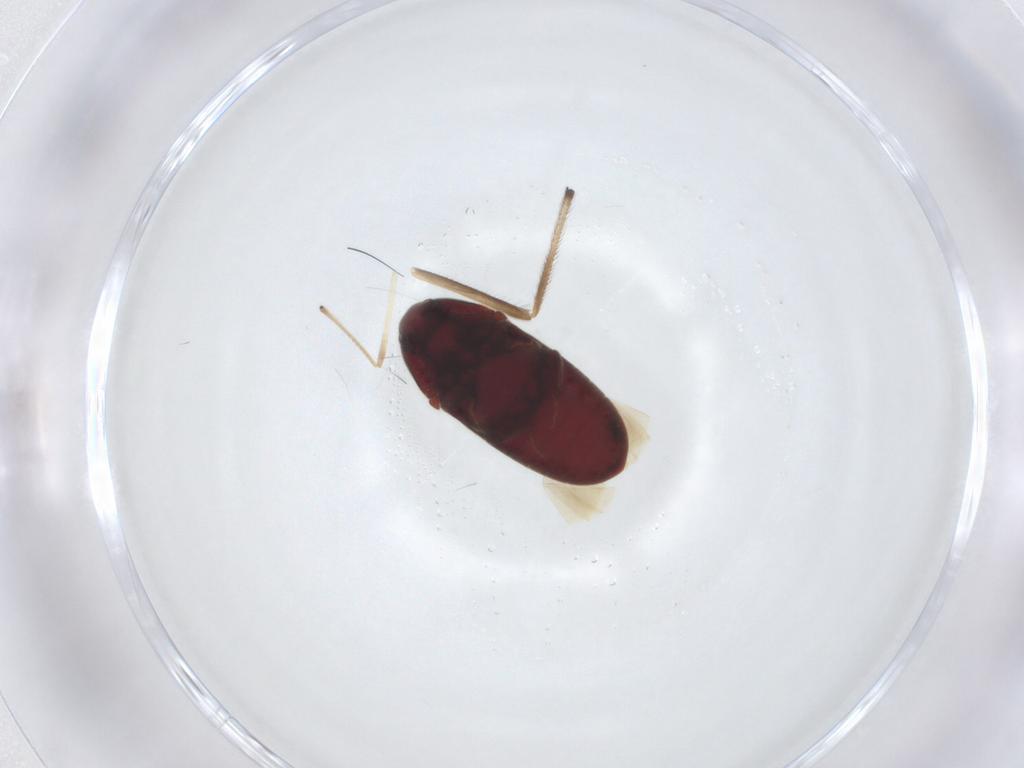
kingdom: Animalia
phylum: Arthropoda
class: Insecta
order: Coleoptera
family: Throscidae
